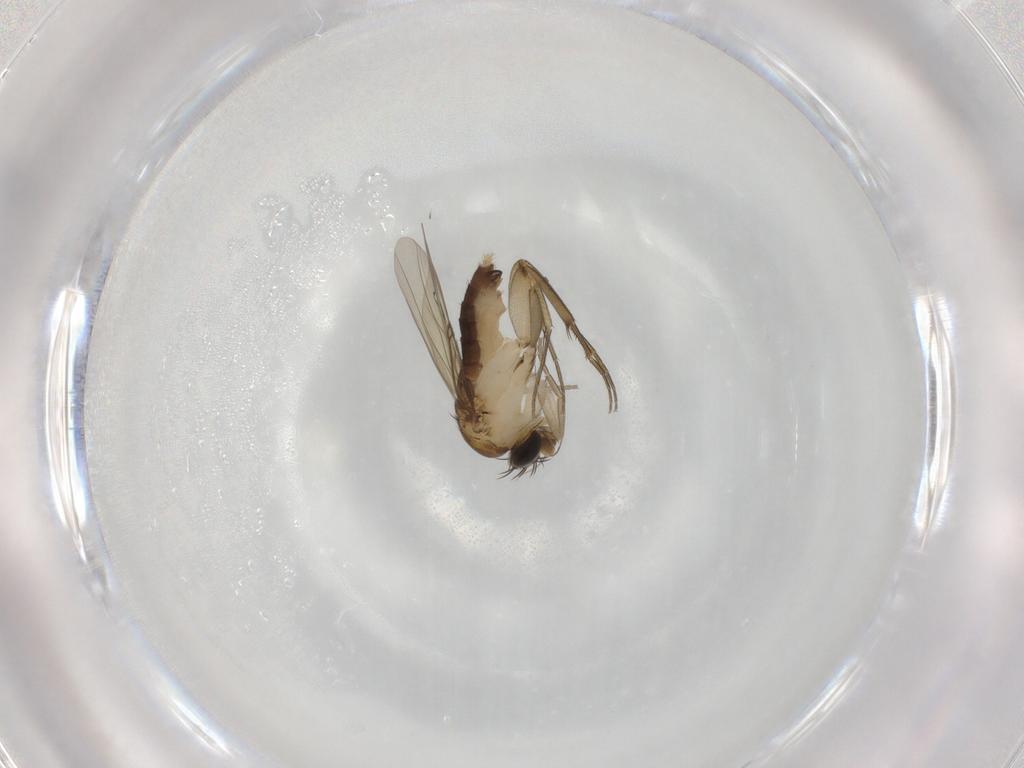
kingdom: Animalia
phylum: Arthropoda
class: Insecta
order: Diptera
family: Phoridae
